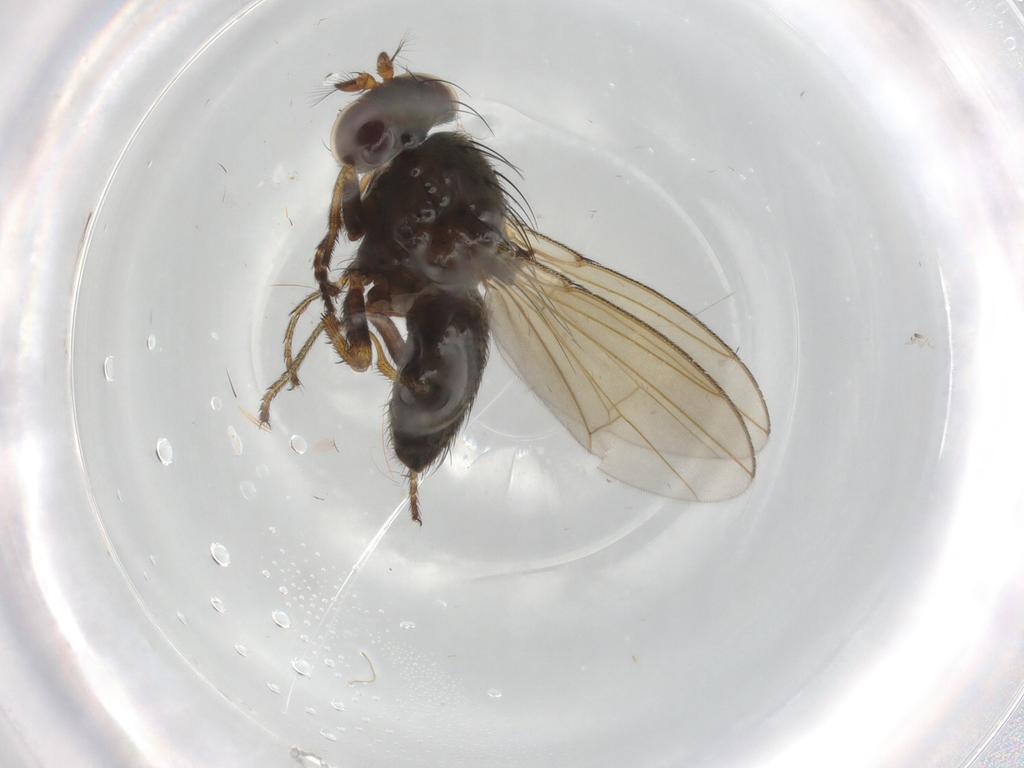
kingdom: Animalia
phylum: Arthropoda
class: Insecta
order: Diptera
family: Ephydridae
